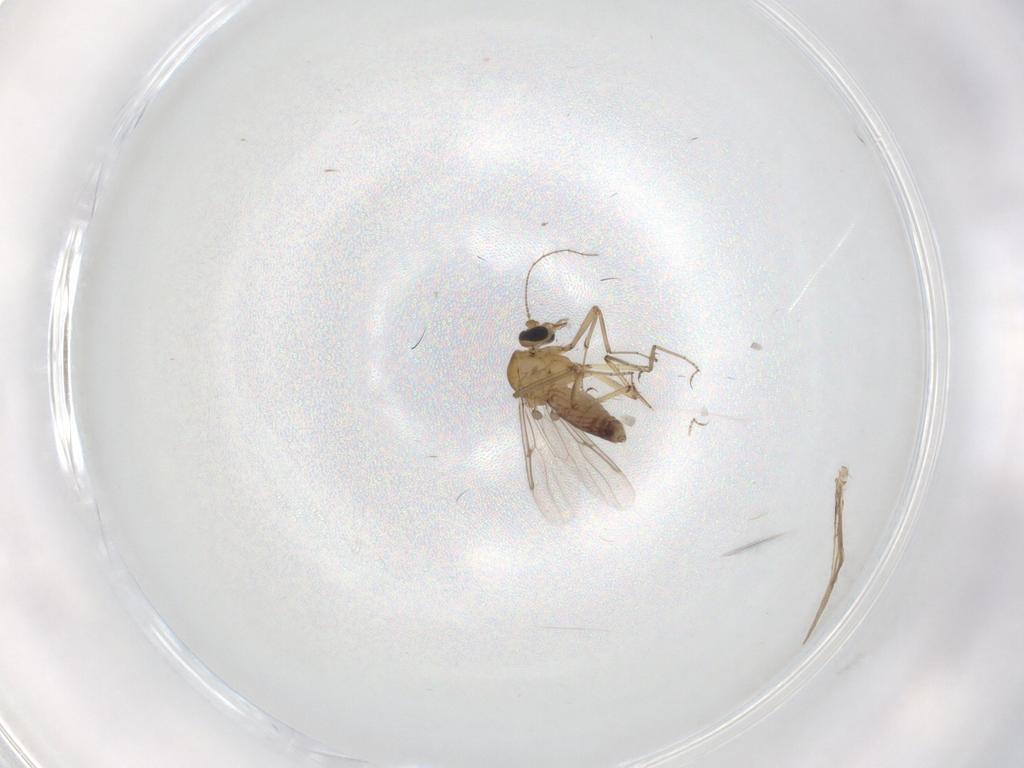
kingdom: Animalia
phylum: Arthropoda
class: Insecta
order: Diptera
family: Ceratopogonidae
